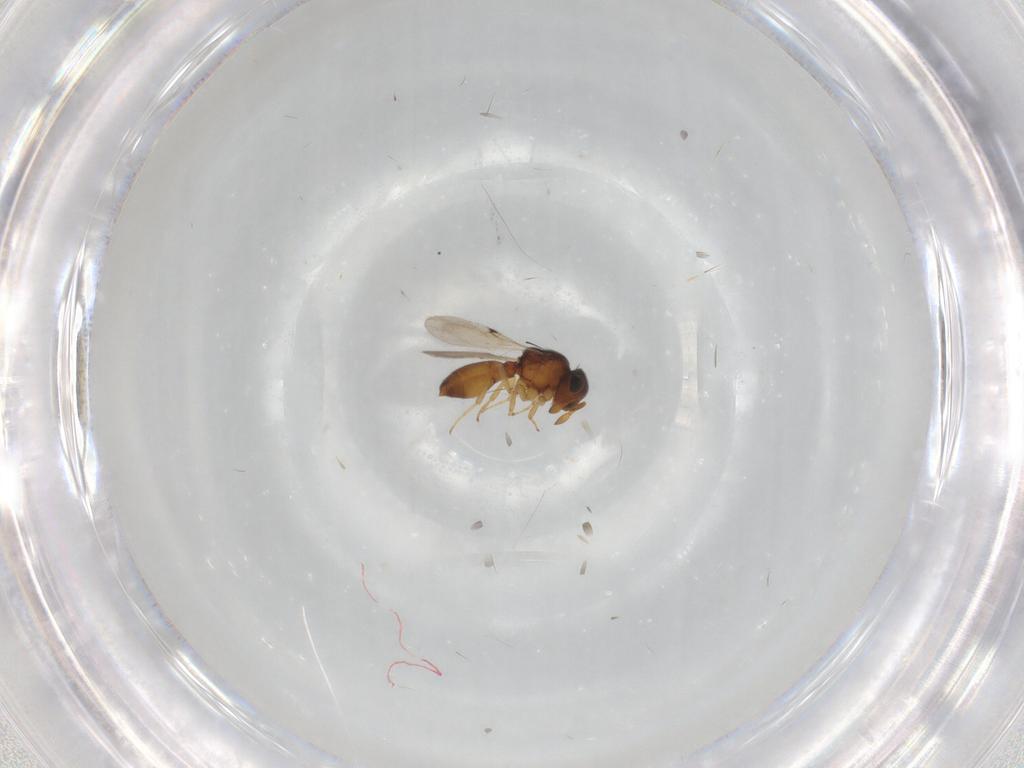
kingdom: Animalia
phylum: Arthropoda
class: Insecta
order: Hymenoptera
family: Scelionidae
